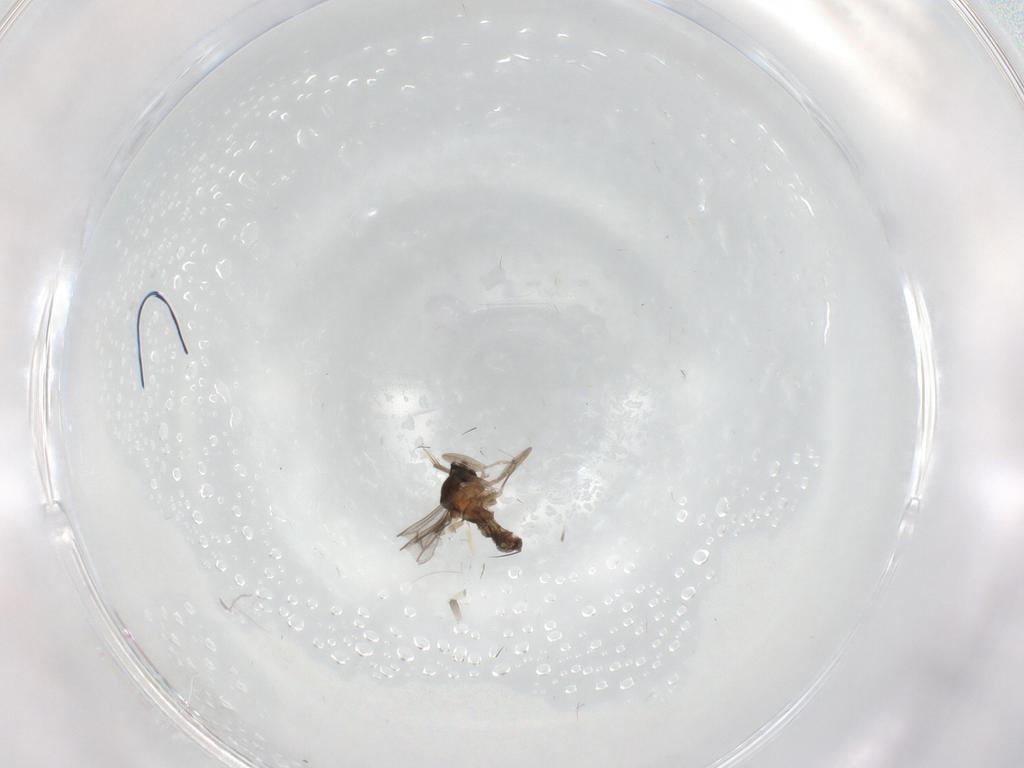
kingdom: Animalia
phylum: Arthropoda
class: Insecta
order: Diptera
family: Cecidomyiidae
